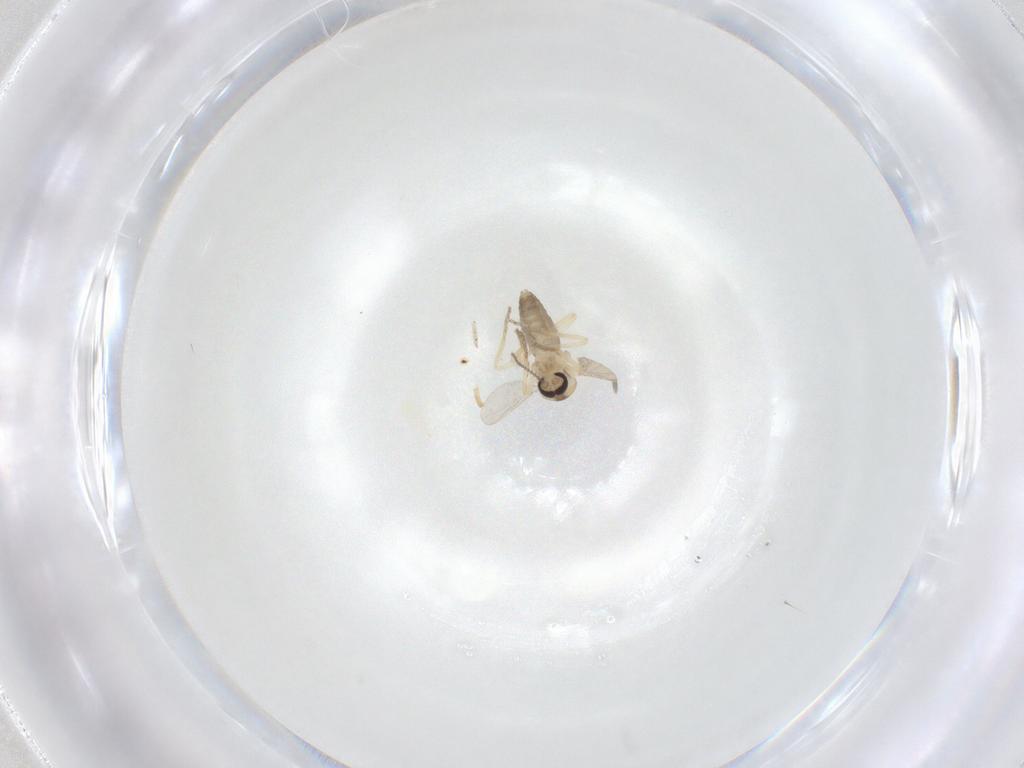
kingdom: Animalia
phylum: Arthropoda
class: Insecta
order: Diptera
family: Ceratopogonidae
